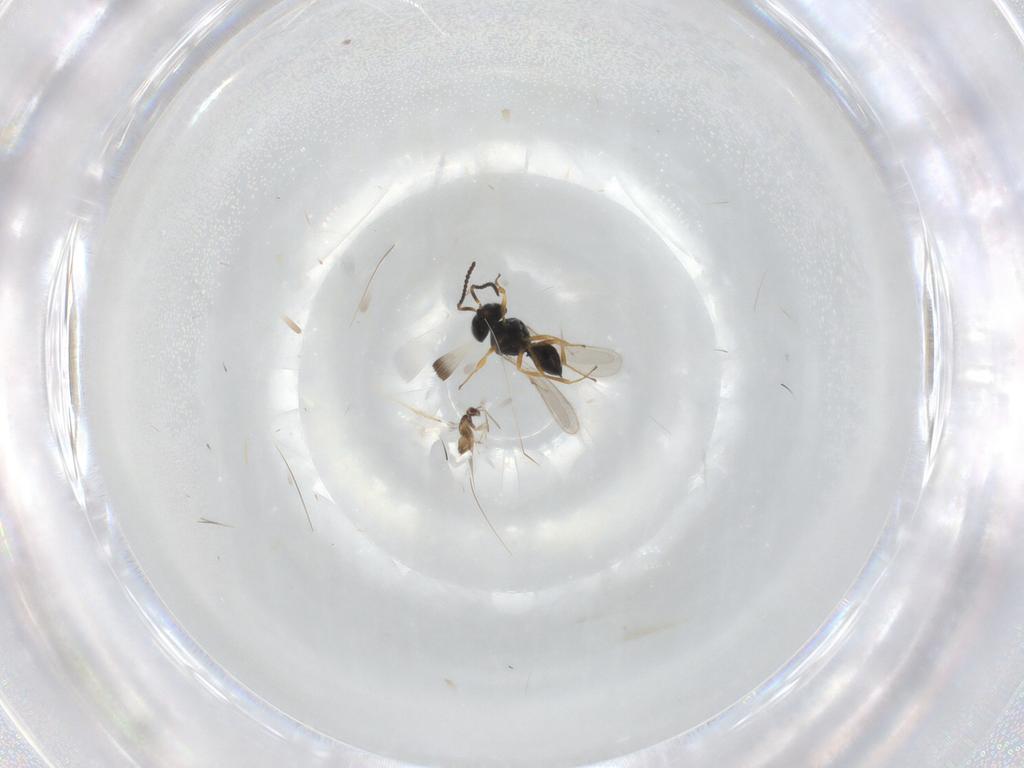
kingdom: Animalia
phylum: Arthropoda
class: Insecta
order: Hymenoptera
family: Scelionidae
